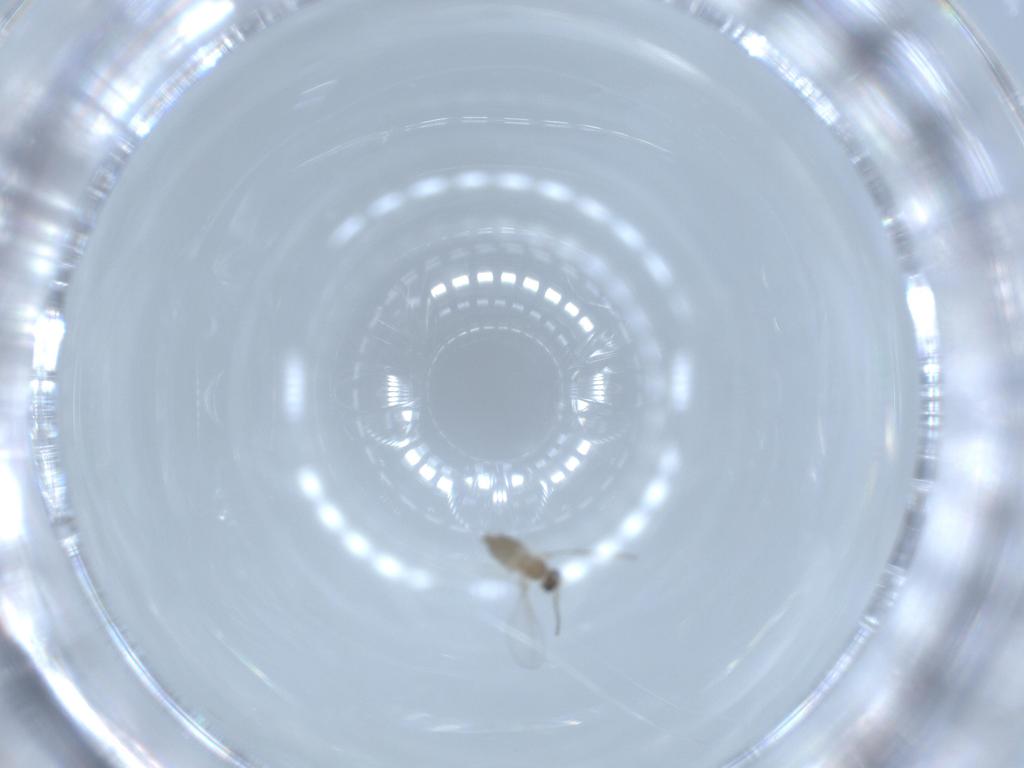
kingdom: Animalia
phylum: Arthropoda
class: Insecta
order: Diptera
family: Cecidomyiidae
